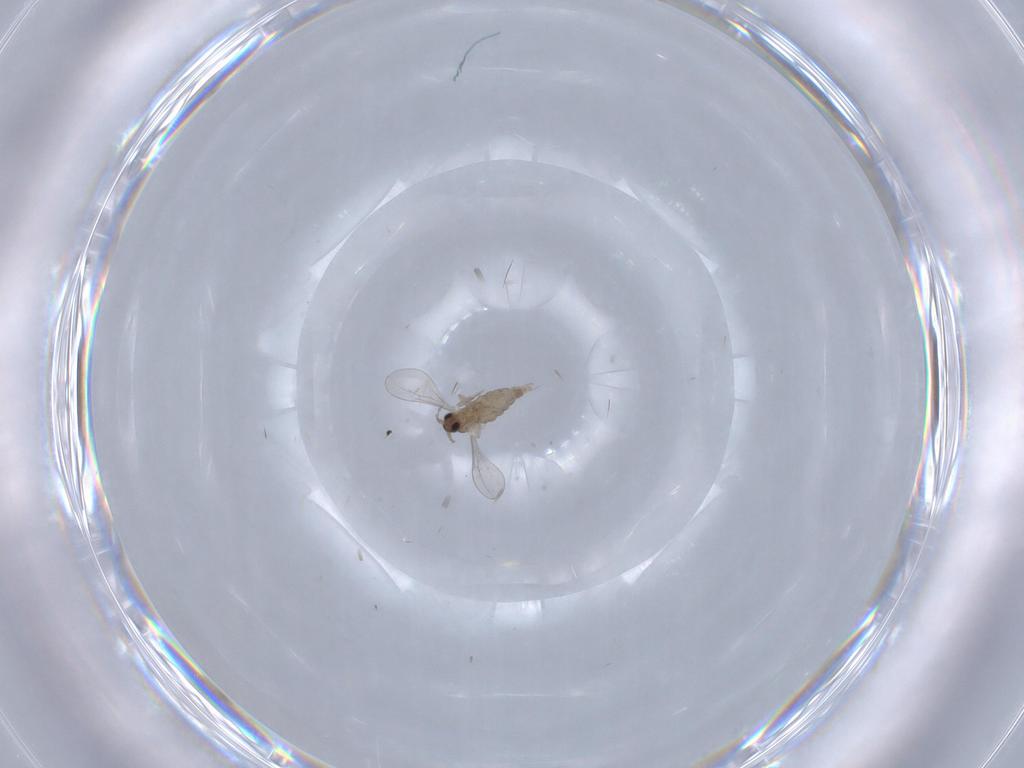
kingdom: Animalia
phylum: Arthropoda
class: Insecta
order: Diptera
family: Cecidomyiidae
